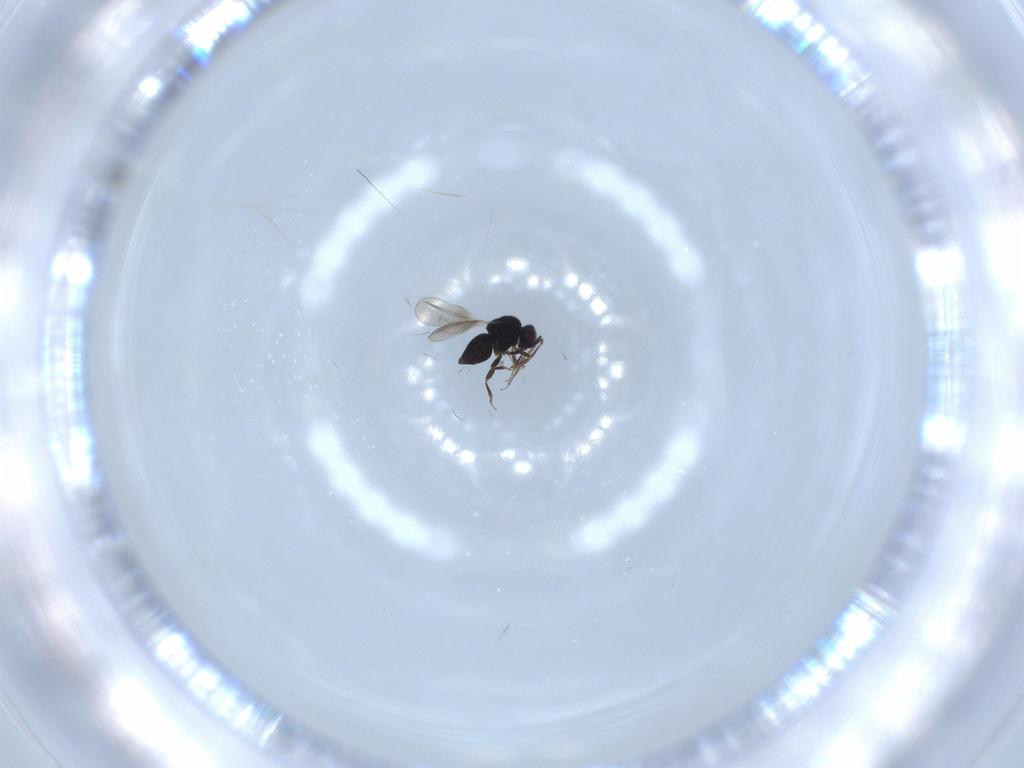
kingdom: Animalia
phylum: Arthropoda
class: Insecta
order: Hymenoptera
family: Ceraphronidae
